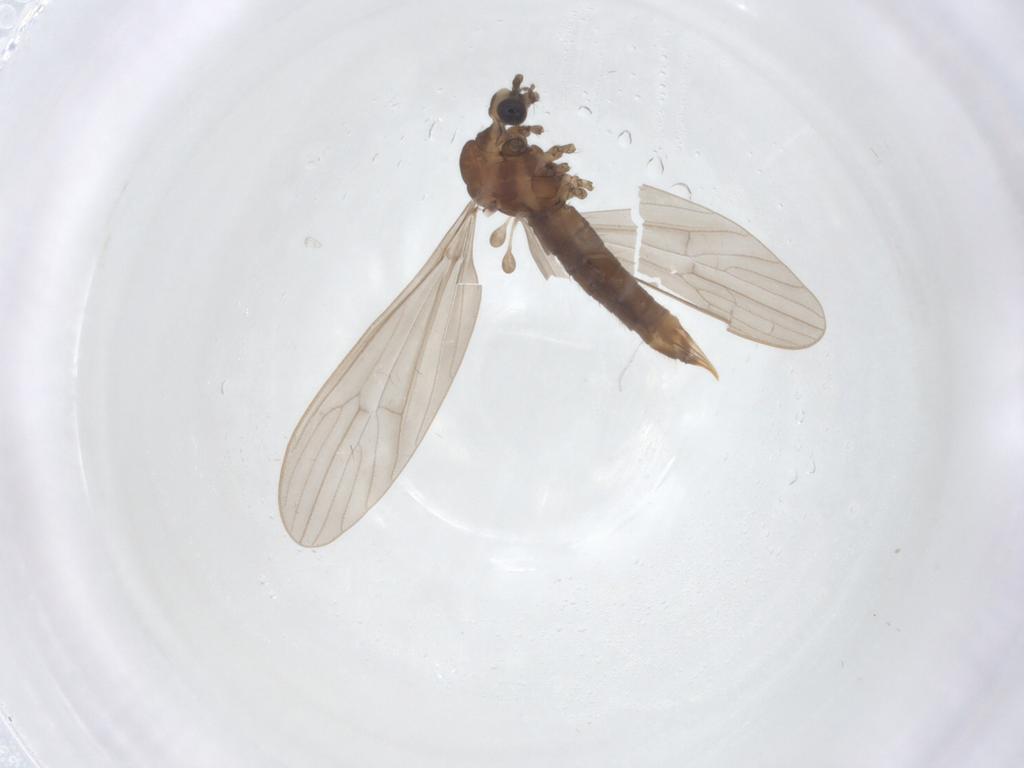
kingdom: Animalia
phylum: Arthropoda
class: Insecta
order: Diptera
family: Limoniidae
